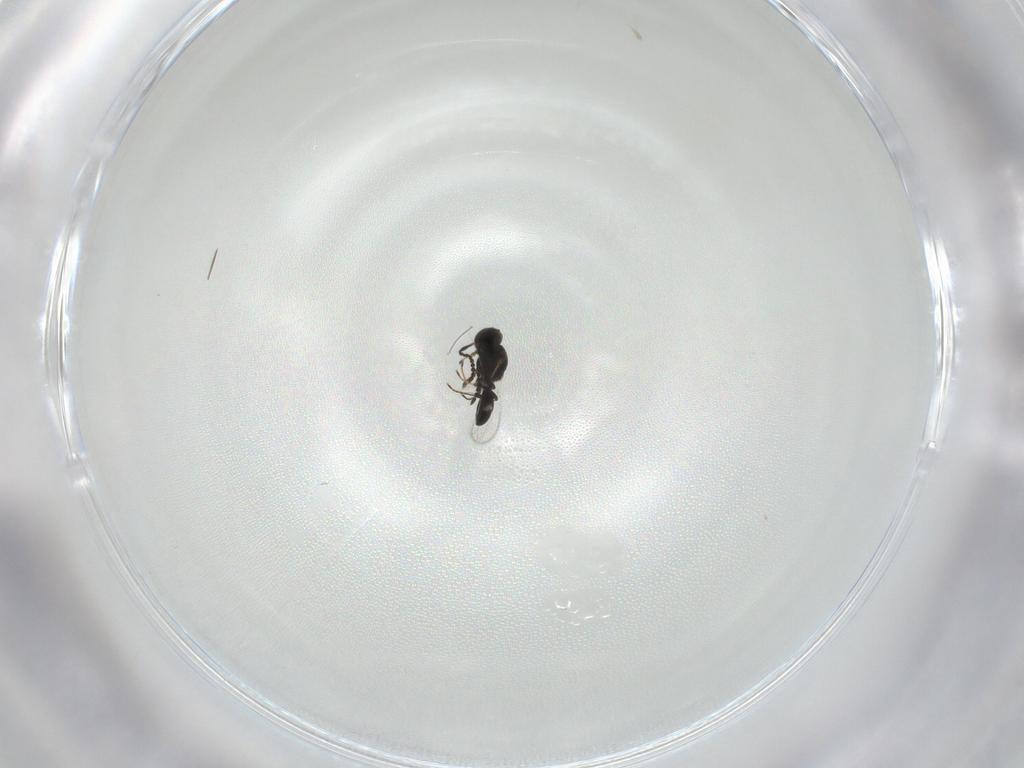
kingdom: Animalia
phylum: Arthropoda
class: Insecta
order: Hymenoptera
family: Platygastridae
